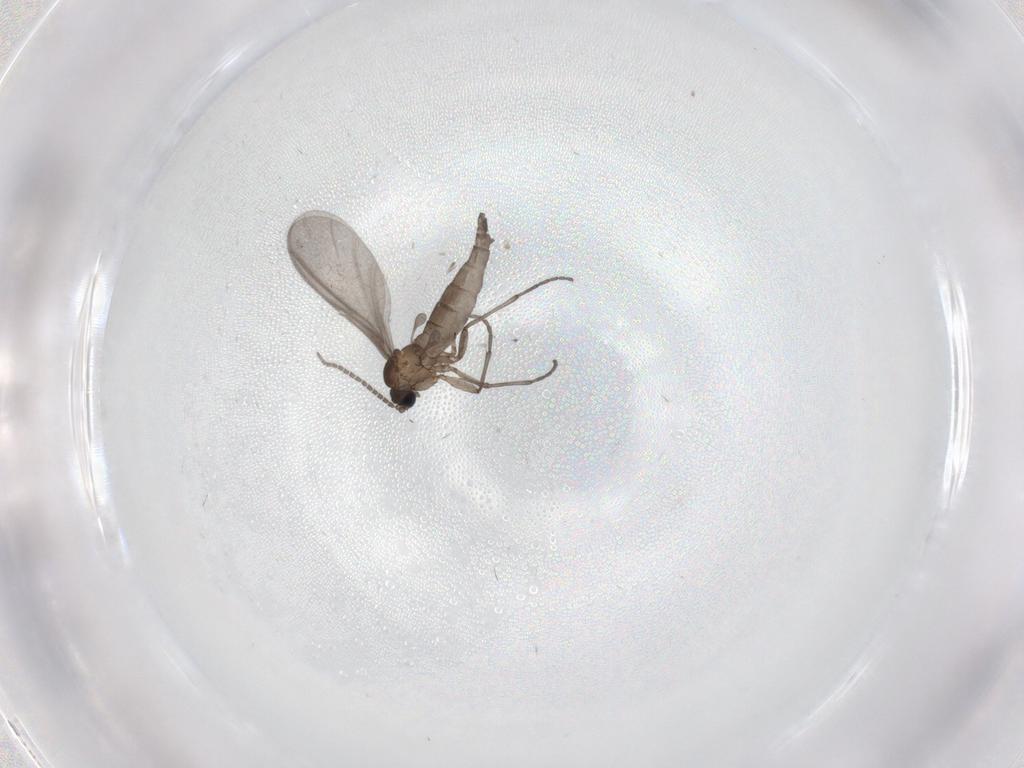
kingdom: Animalia
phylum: Arthropoda
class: Insecta
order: Diptera
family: Sciaridae
